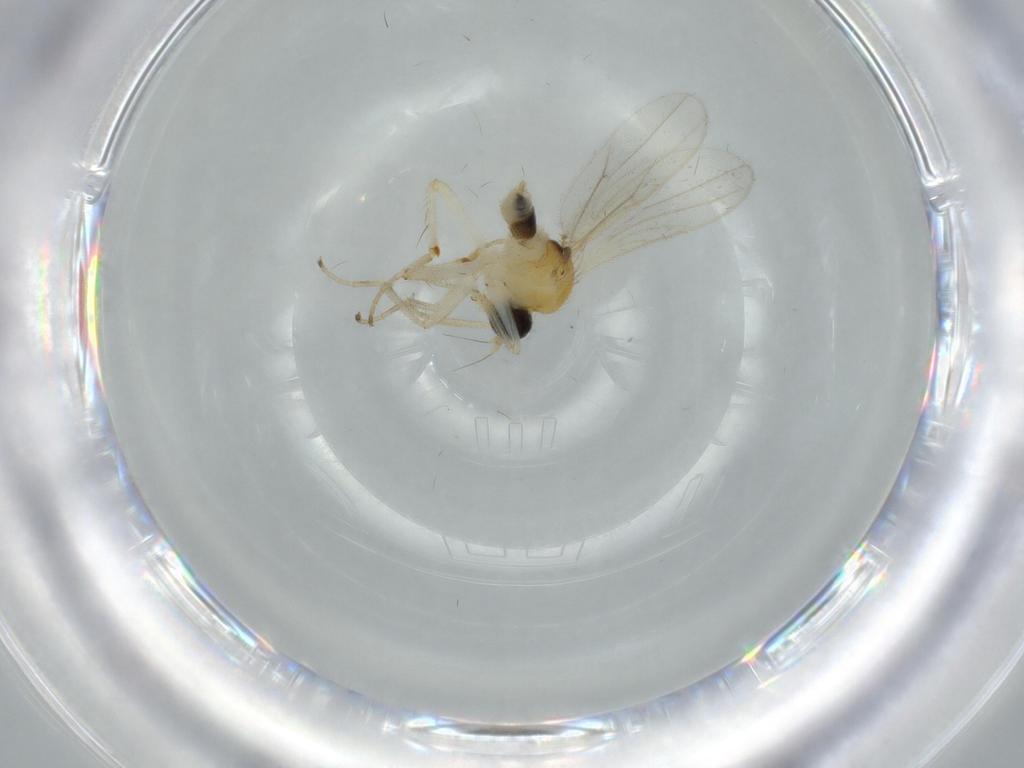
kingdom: Animalia
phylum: Arthropoda
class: Insecta
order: Diptera
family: Hybotidae
